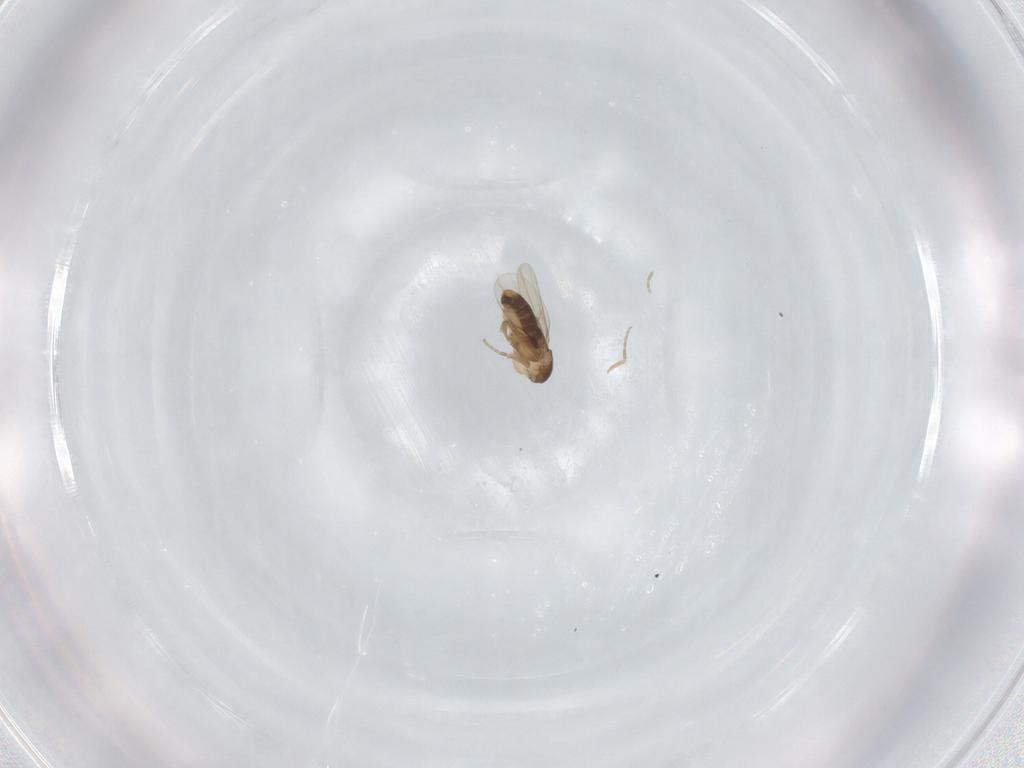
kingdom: Animalia
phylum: Arthropoda
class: Insecta
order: Diptera
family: Phoridae
